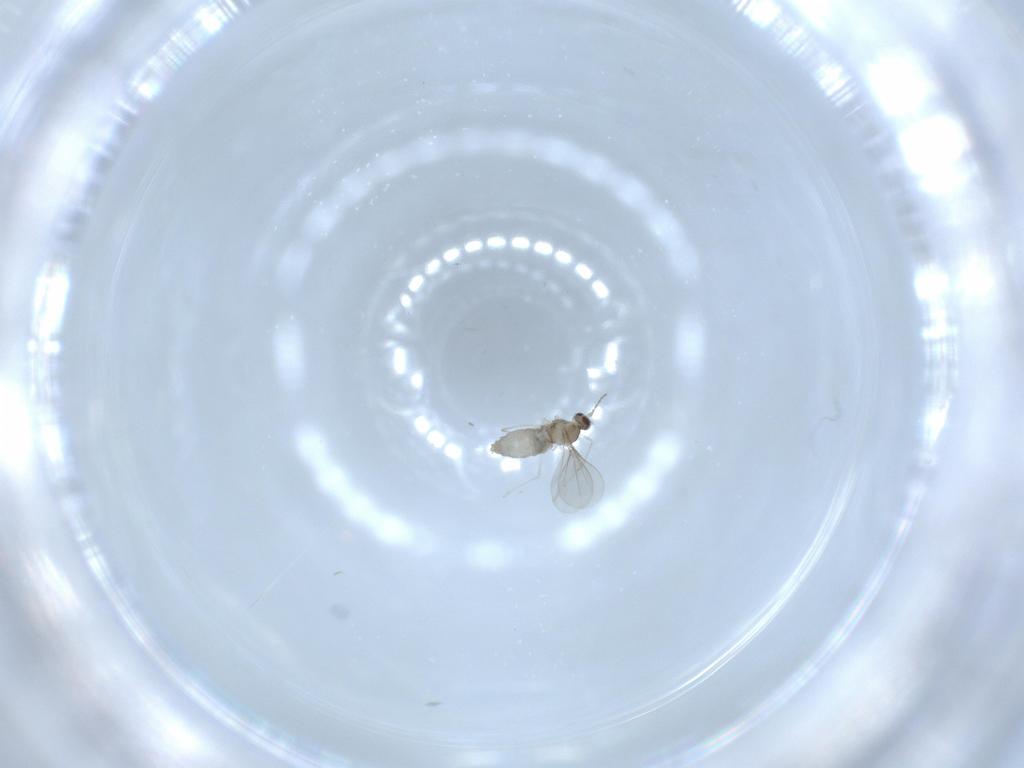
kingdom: Animalia
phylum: Arthropoda
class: Insecta
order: Diptera
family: Cecidomyiidae
